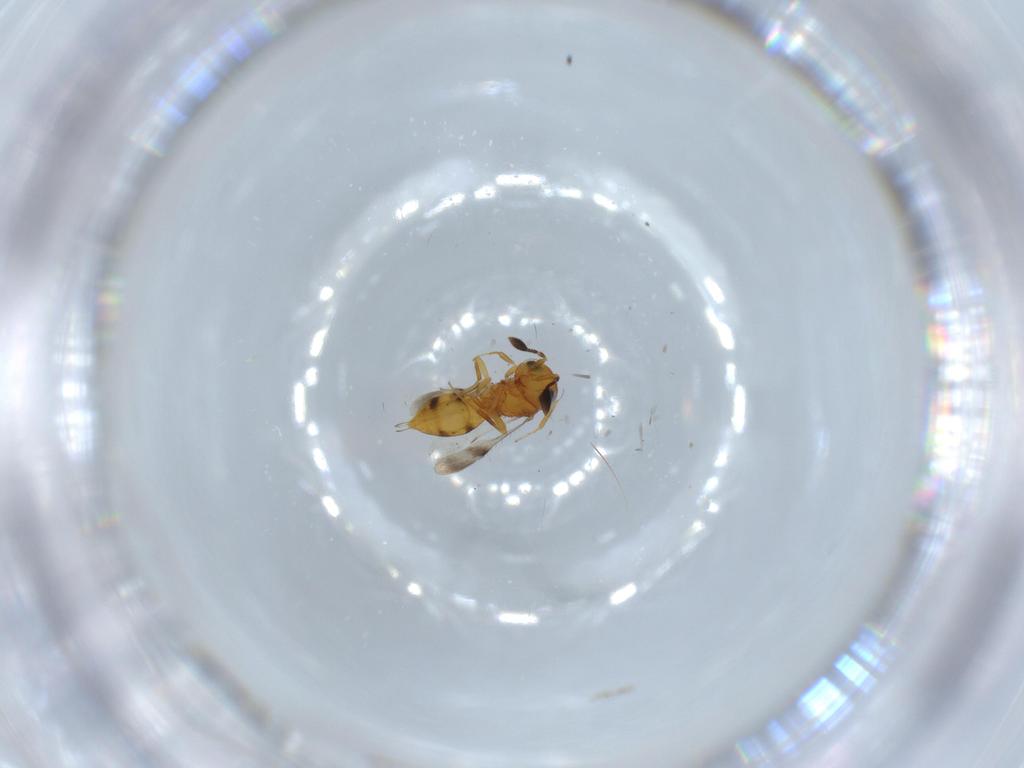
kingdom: Animalia
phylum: Arthropoda
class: Insecta
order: Hymenoptera
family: Scelionidae
